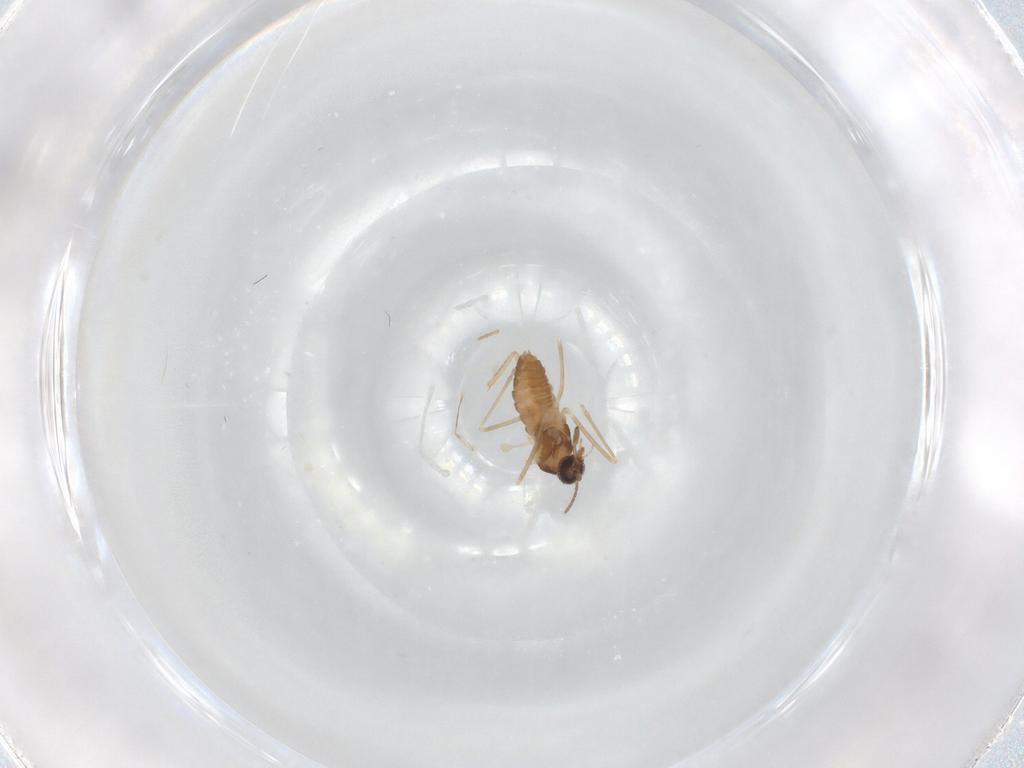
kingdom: Animalia
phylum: Arthropoda
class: Insecta
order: Diptera
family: Cecidomyiidae
